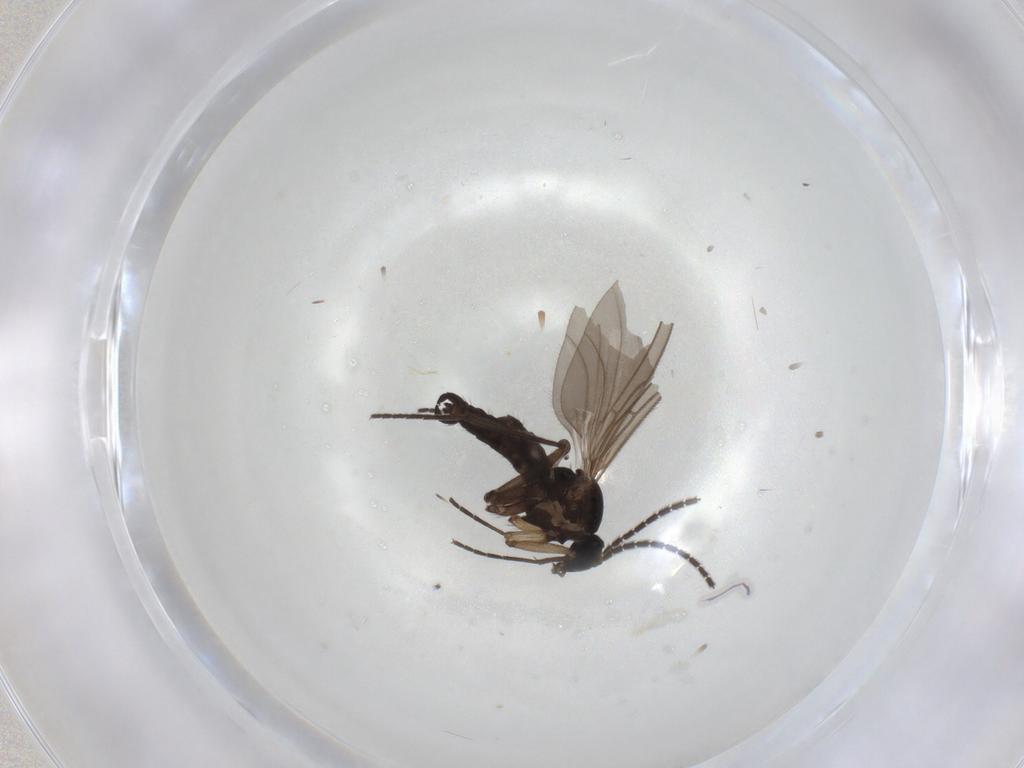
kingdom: Animalia
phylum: Arthropoda
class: Insecta
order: Diptera
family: Sciaridae
